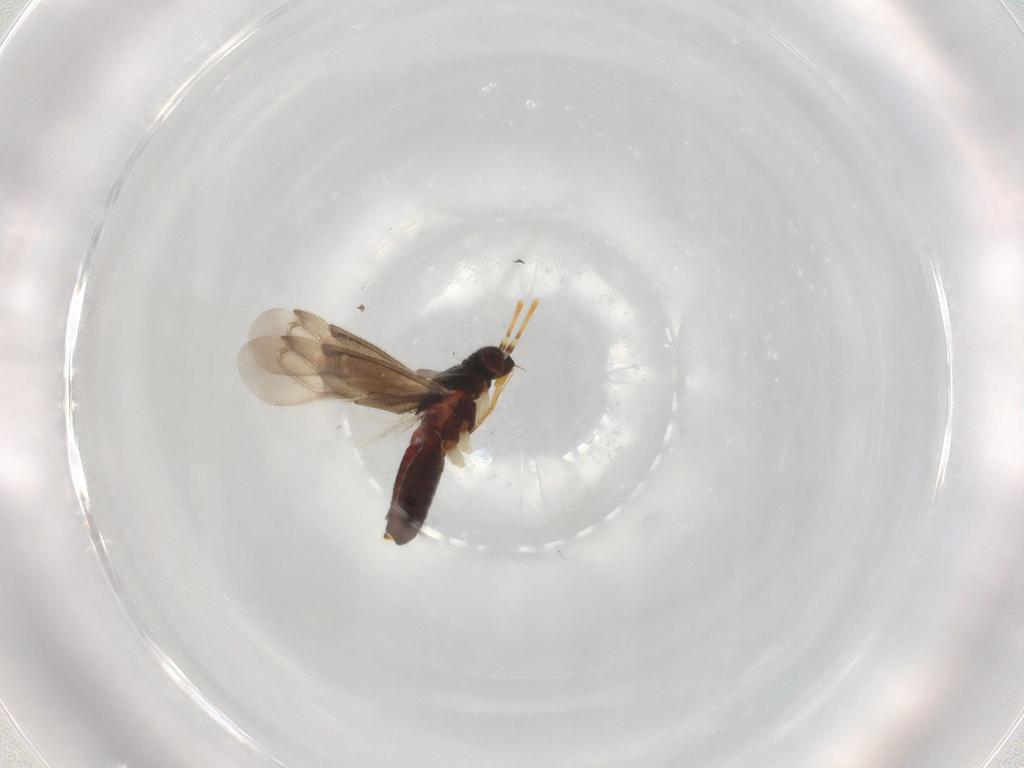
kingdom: Animalia
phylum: Arthropoda
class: Insecta
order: Hemiptera
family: Miridae
